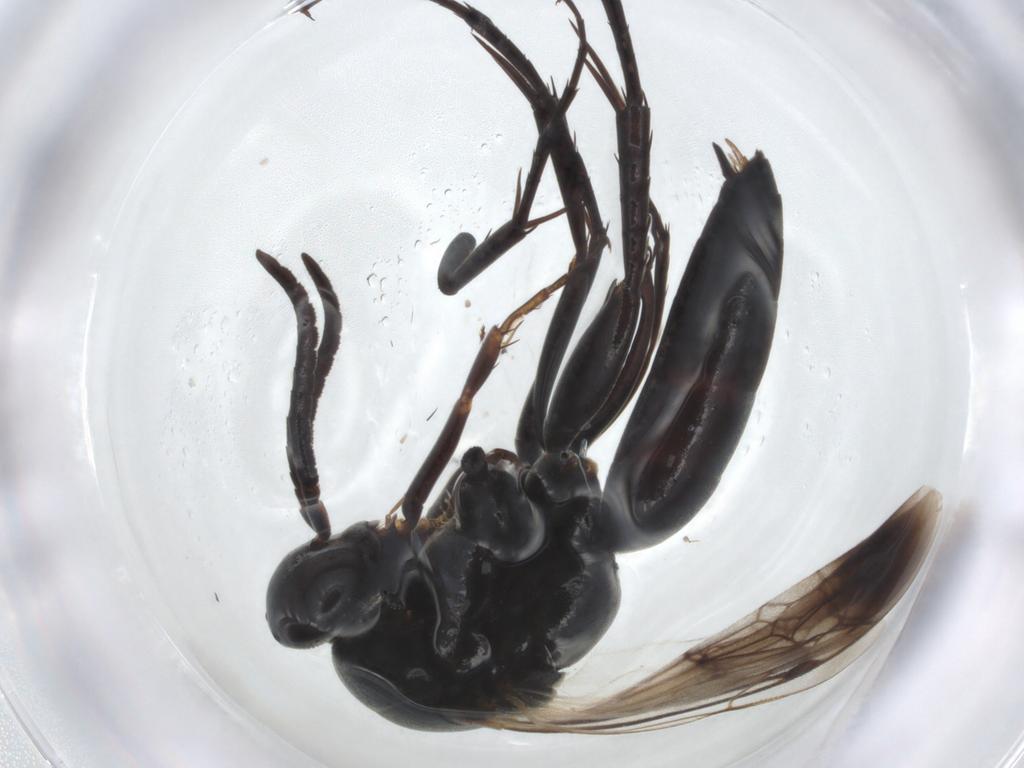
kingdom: Animalia
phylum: Arthropoda
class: Insecta
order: Hymenoptera
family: Pompilidae
